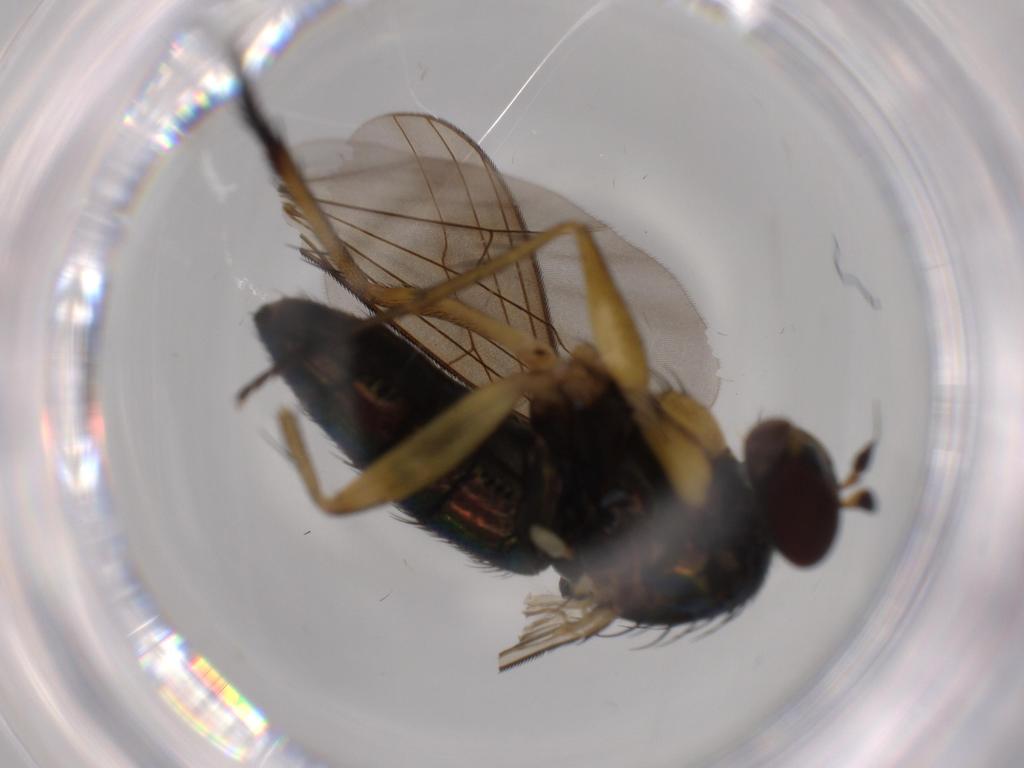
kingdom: Animalia
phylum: Arthropoda
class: Insecta
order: Diptera
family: Dolichopodidae
